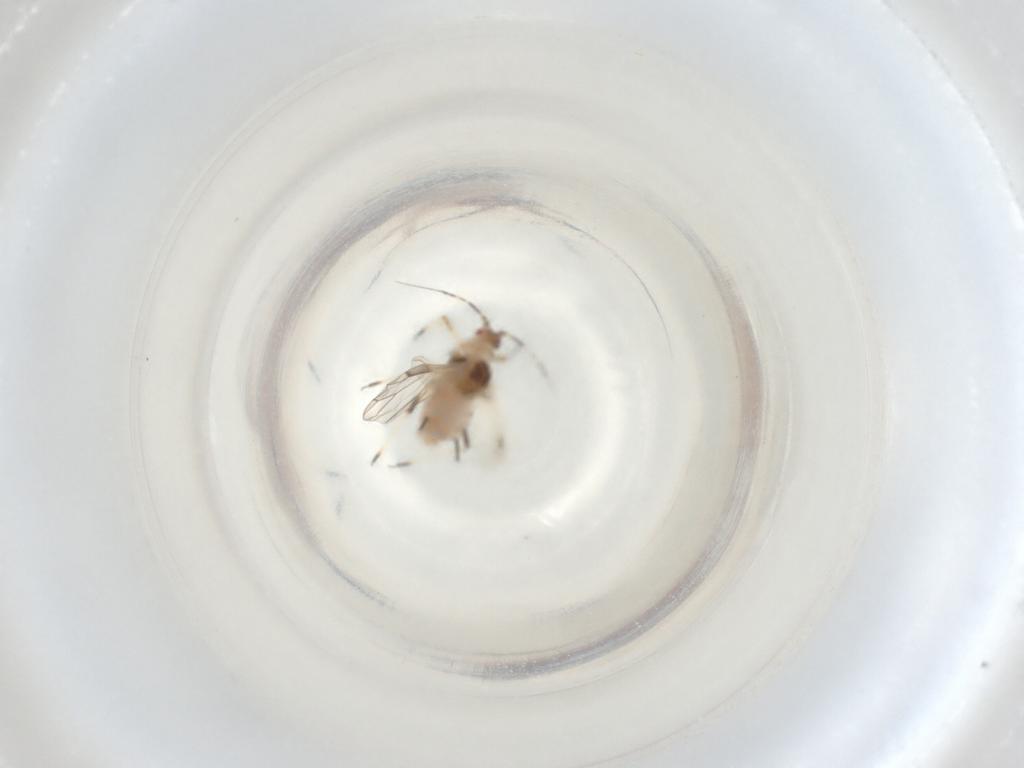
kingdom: Animalia
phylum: Arthropoda
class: Insecta
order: Hemiptera
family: Aphididae
